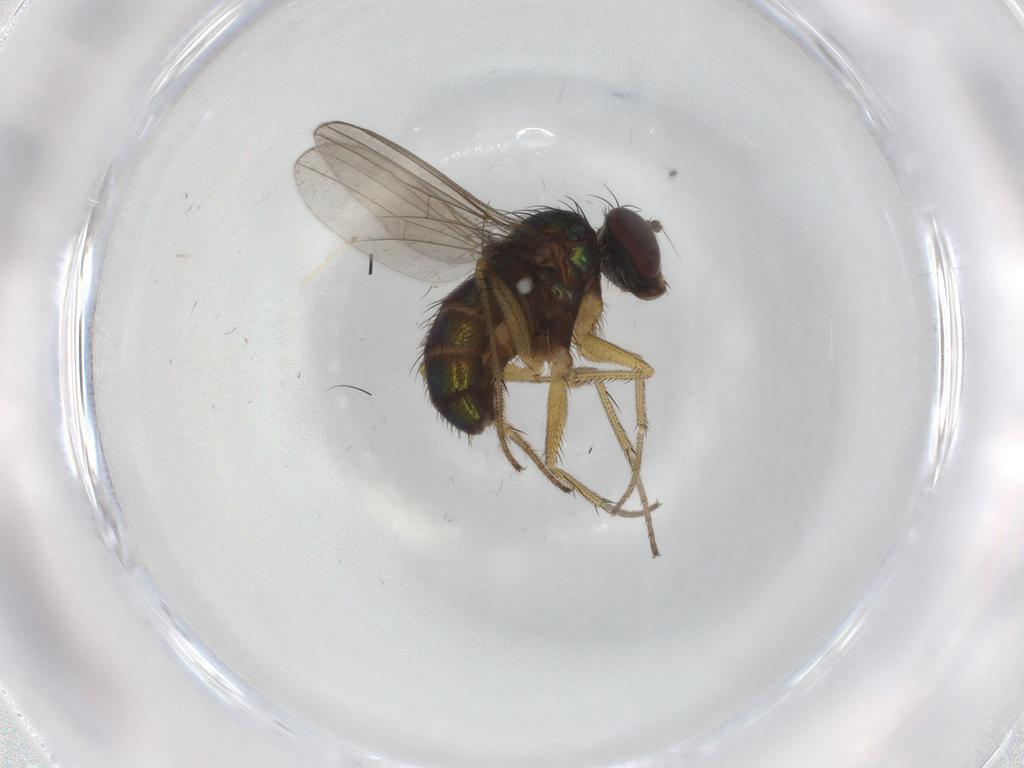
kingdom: Animalia
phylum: Arthropoda
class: Insecta
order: Diptera
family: Dolichopodidae
